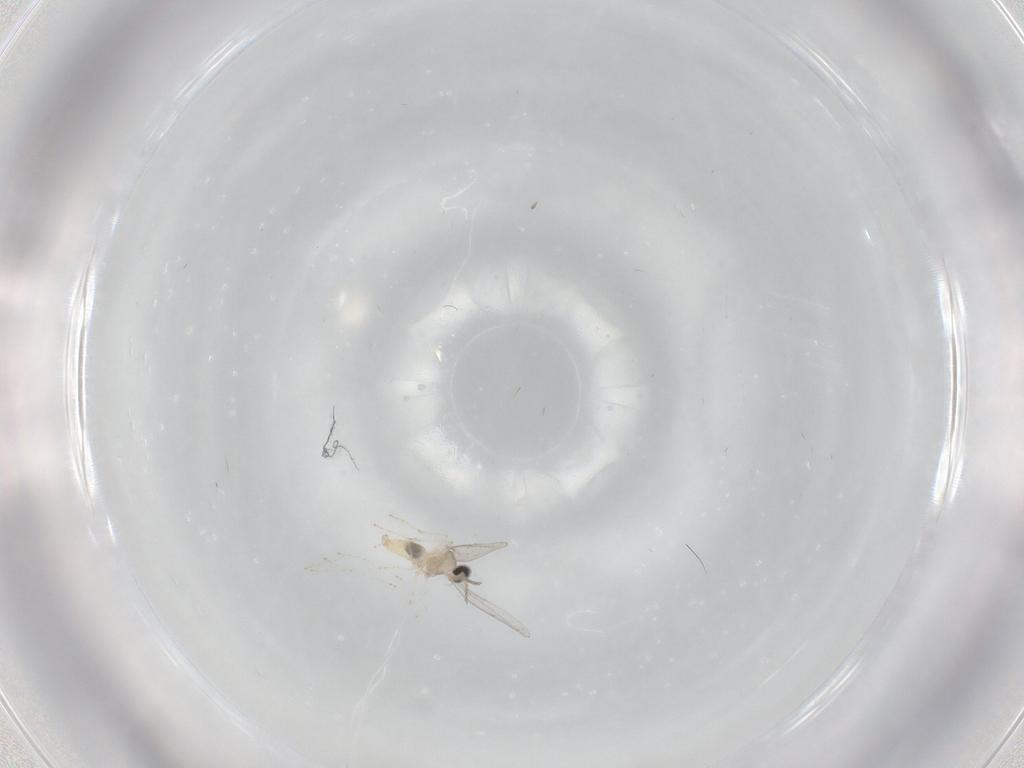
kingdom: Animalia
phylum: Arthropoda
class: Insecta
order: Diptera
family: Cecidomyiidae
